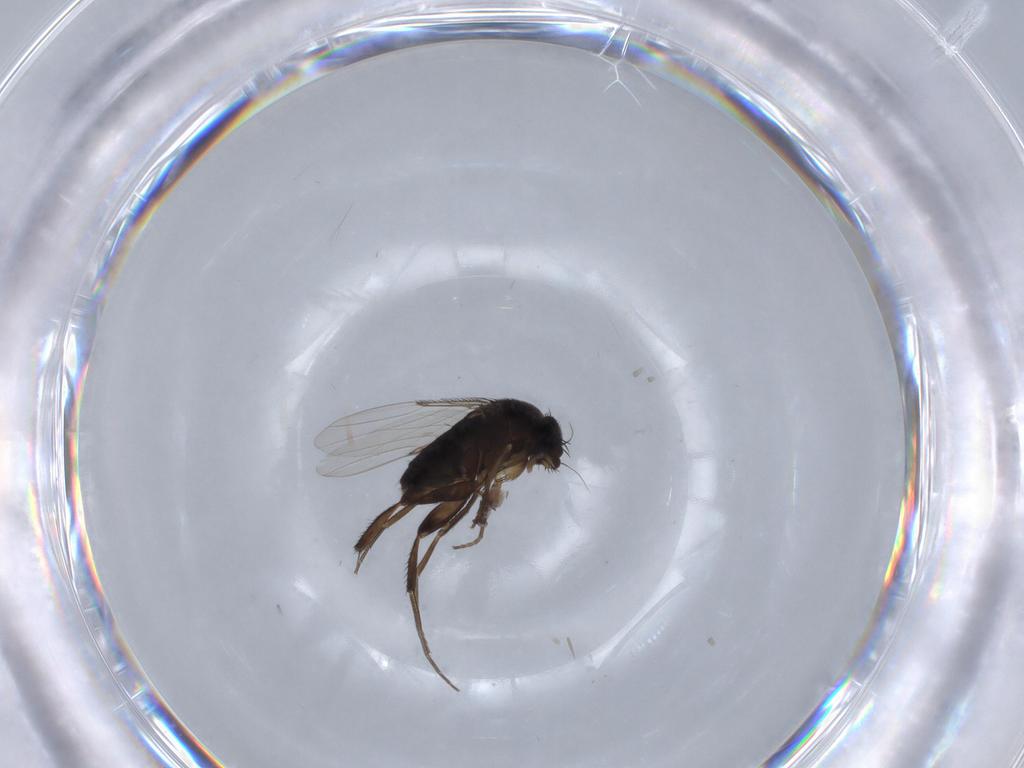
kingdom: Animalia
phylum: Arthropoda
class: Insecta
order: Diptera
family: Phoridae
